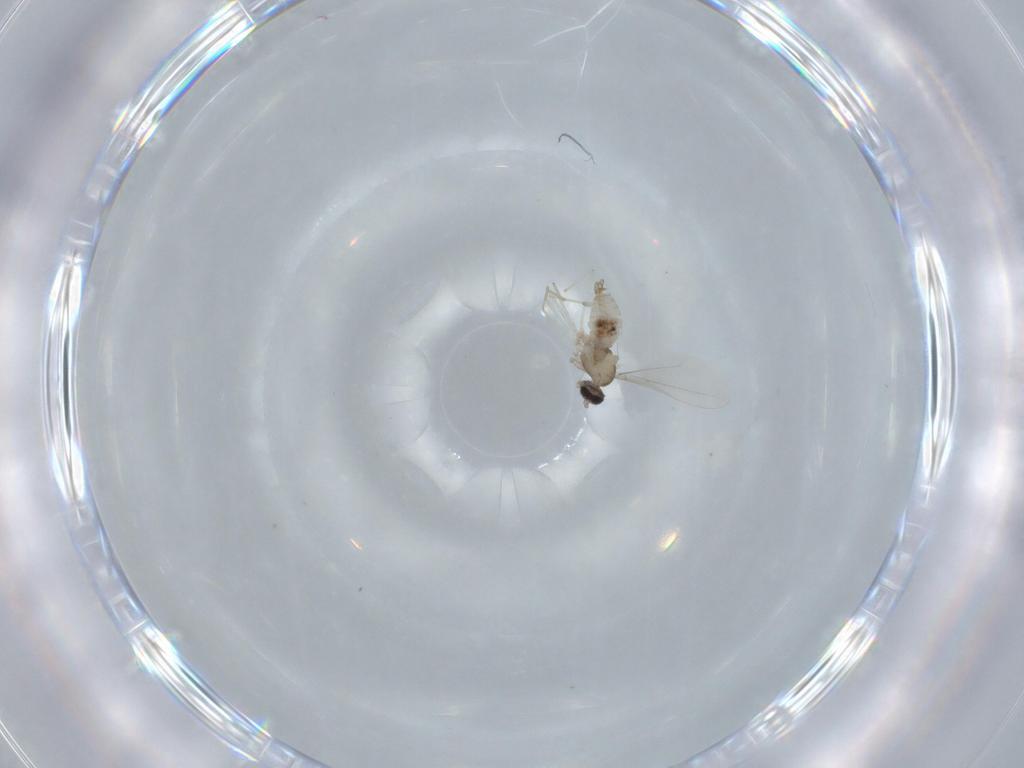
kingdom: Animalia
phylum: Arthropoda
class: Insecta
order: Diptera
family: Cecidomyiidae
